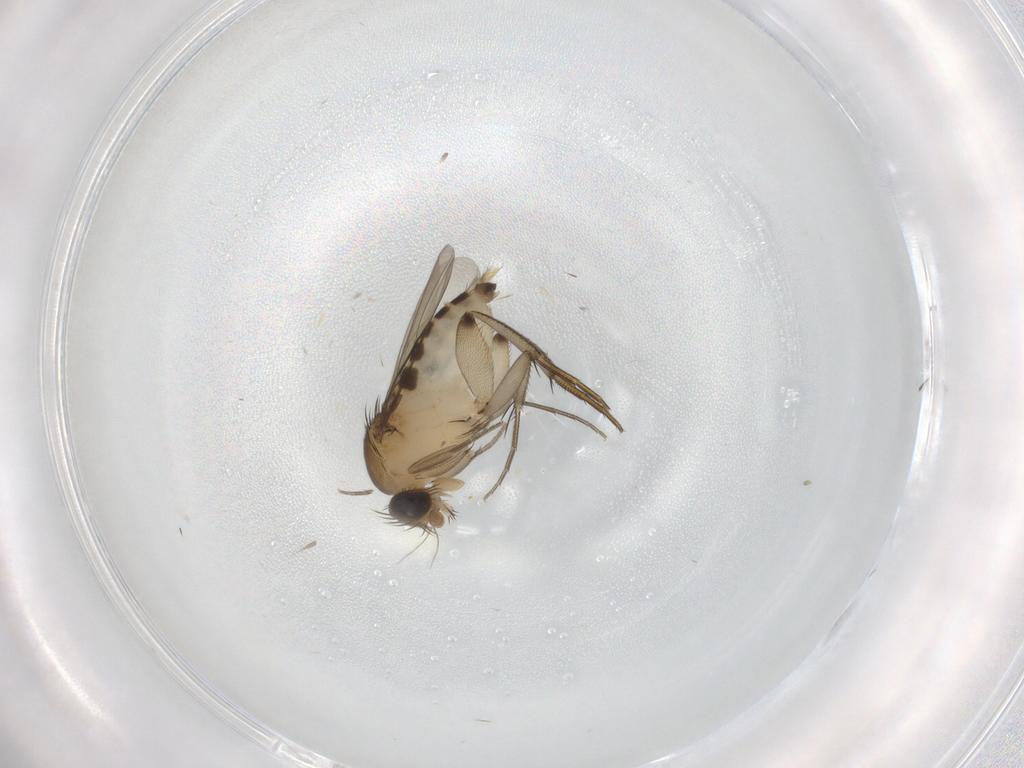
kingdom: Animalia
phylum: Arthropoda
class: Insecta
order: Diptera
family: Phoridae
